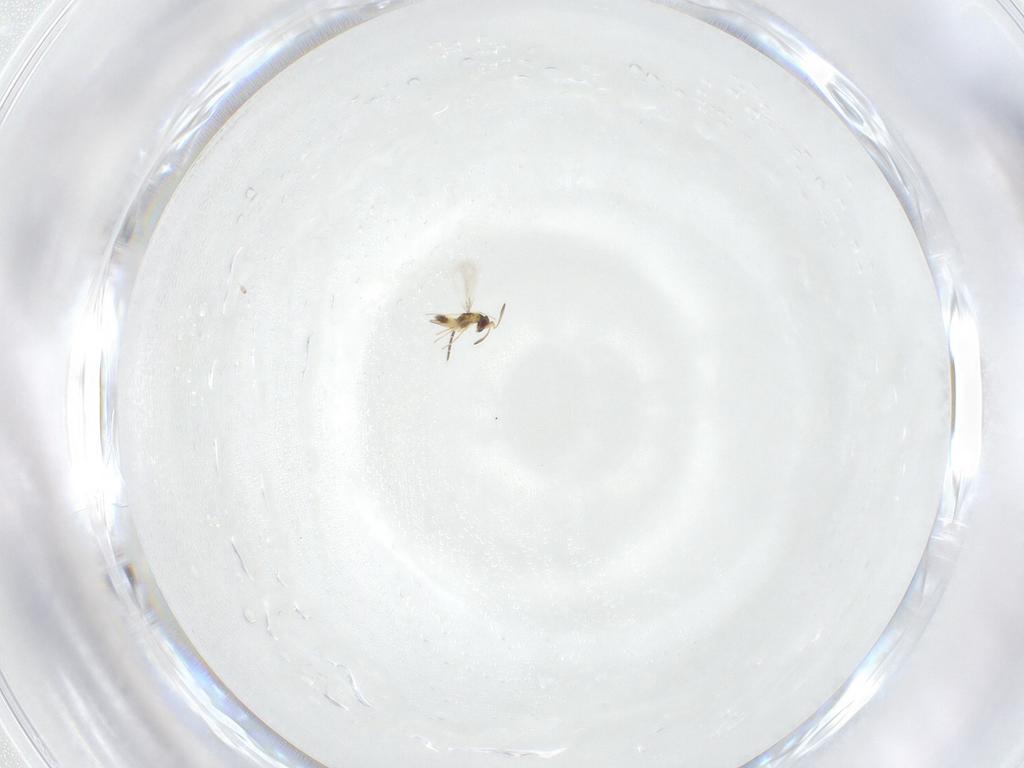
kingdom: Animalia
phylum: Arthropoda
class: Insecta
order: Diptera
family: Sciaridae
